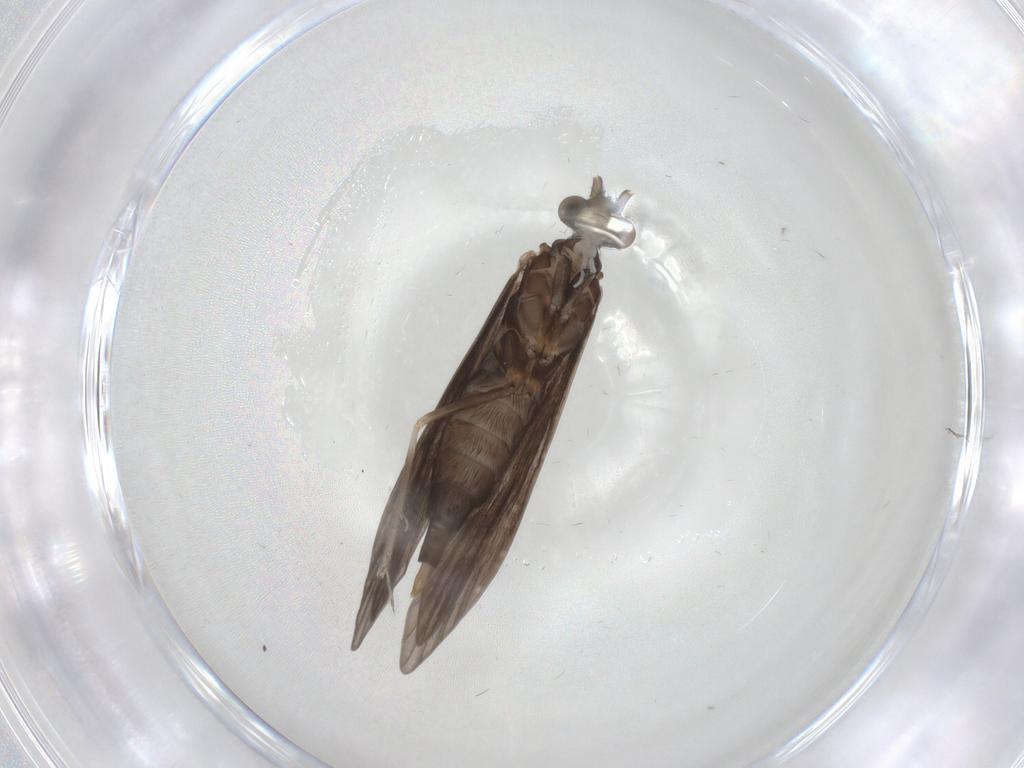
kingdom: Animalia
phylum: Arthropoda
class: Insecta
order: Trichoptera
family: Xiphocentronidae
